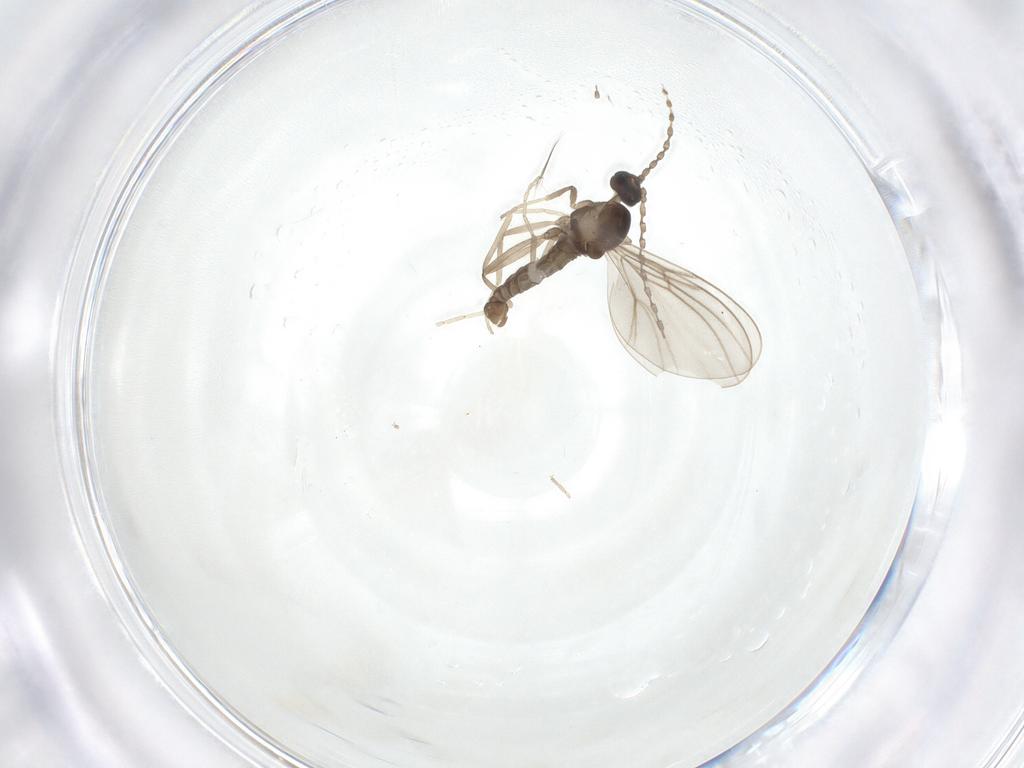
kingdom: Animalia
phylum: Arthropoda
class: Insecta
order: Diptera
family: Cecidomyiidae
